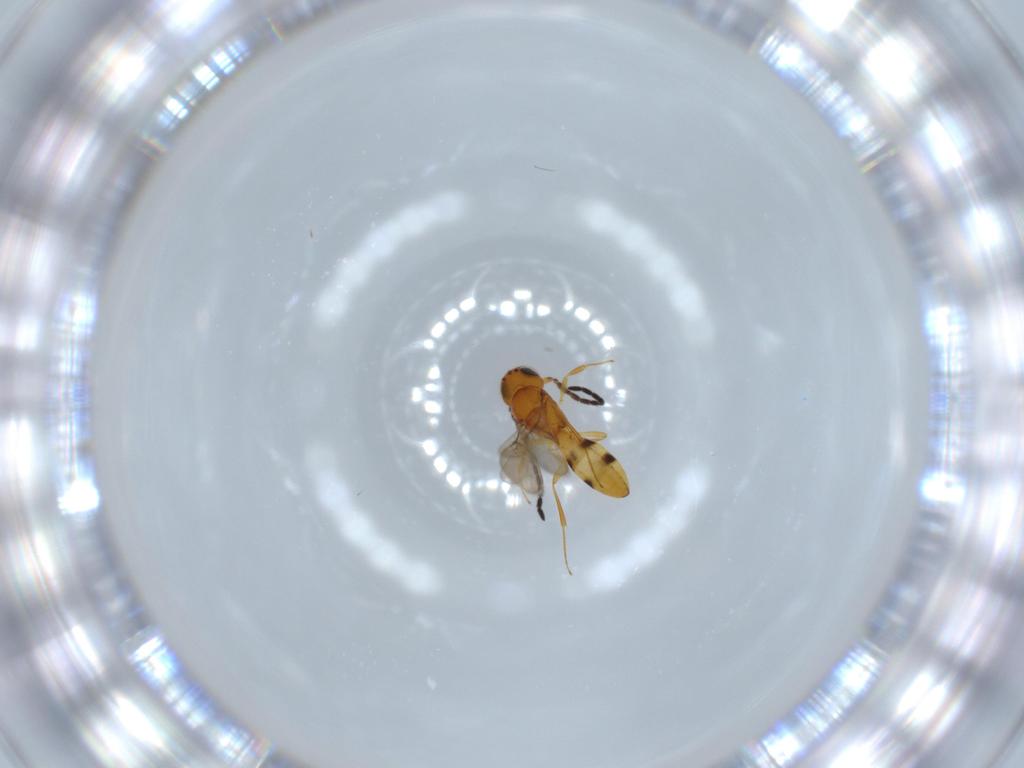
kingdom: Animalia
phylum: Arthropoda
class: Insecta
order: Hymenoptera
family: Scelionidae
